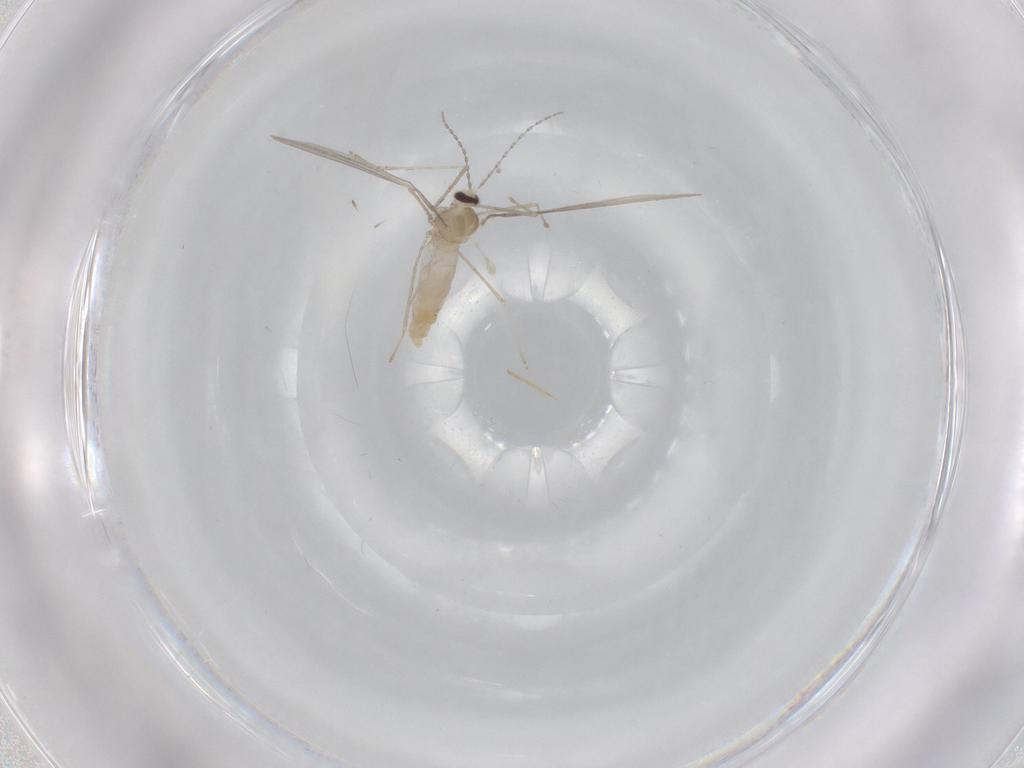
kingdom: Animalia
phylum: Arthropoda
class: Insecta
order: Diptera
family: Cecidomyiidae
